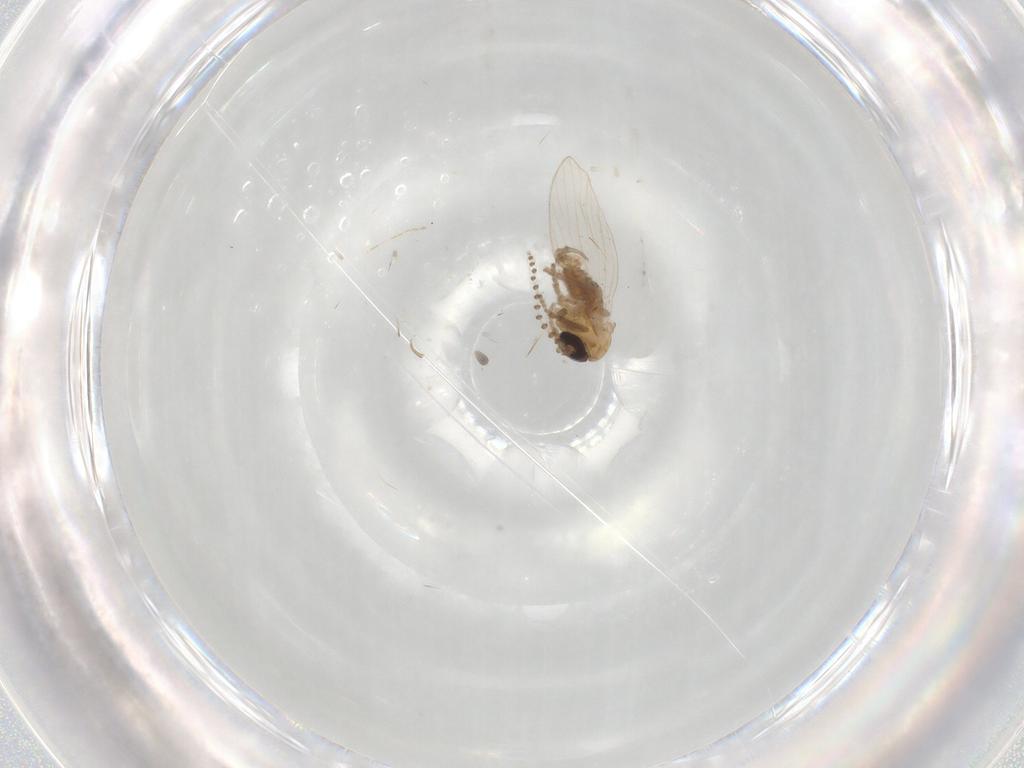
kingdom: Animalia
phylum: Arthropoda
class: Insecta
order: Diptera
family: Psychodidae
